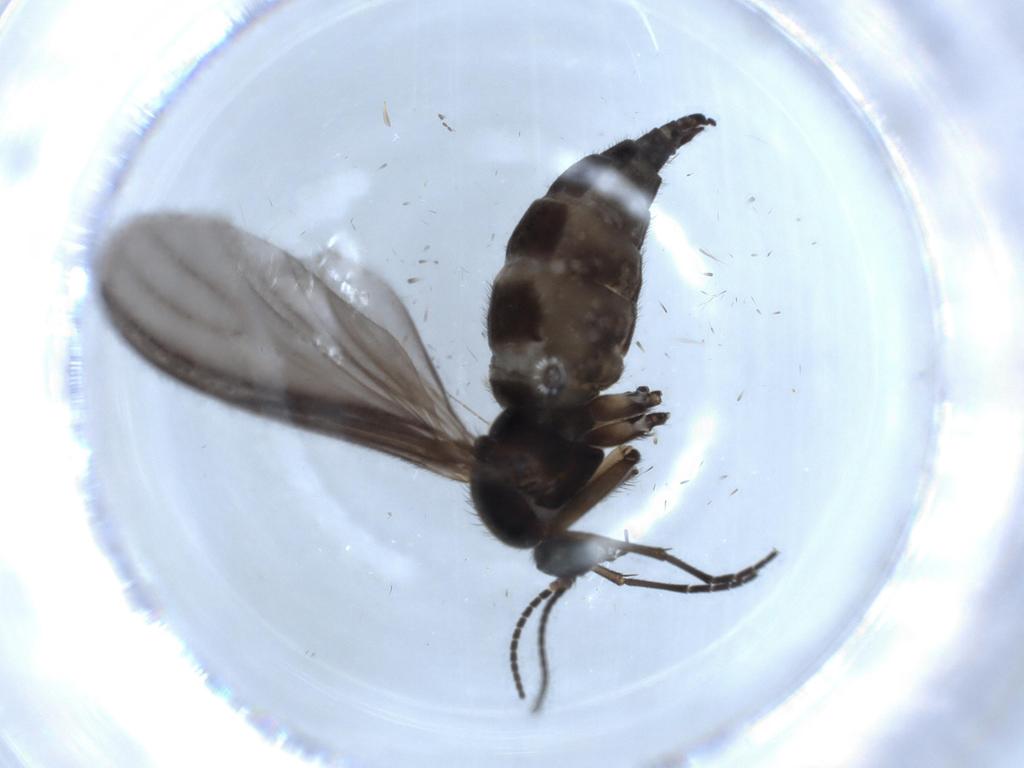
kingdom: Animalia
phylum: Arthropoda
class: Insecta
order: Diptera
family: Sciaridae
